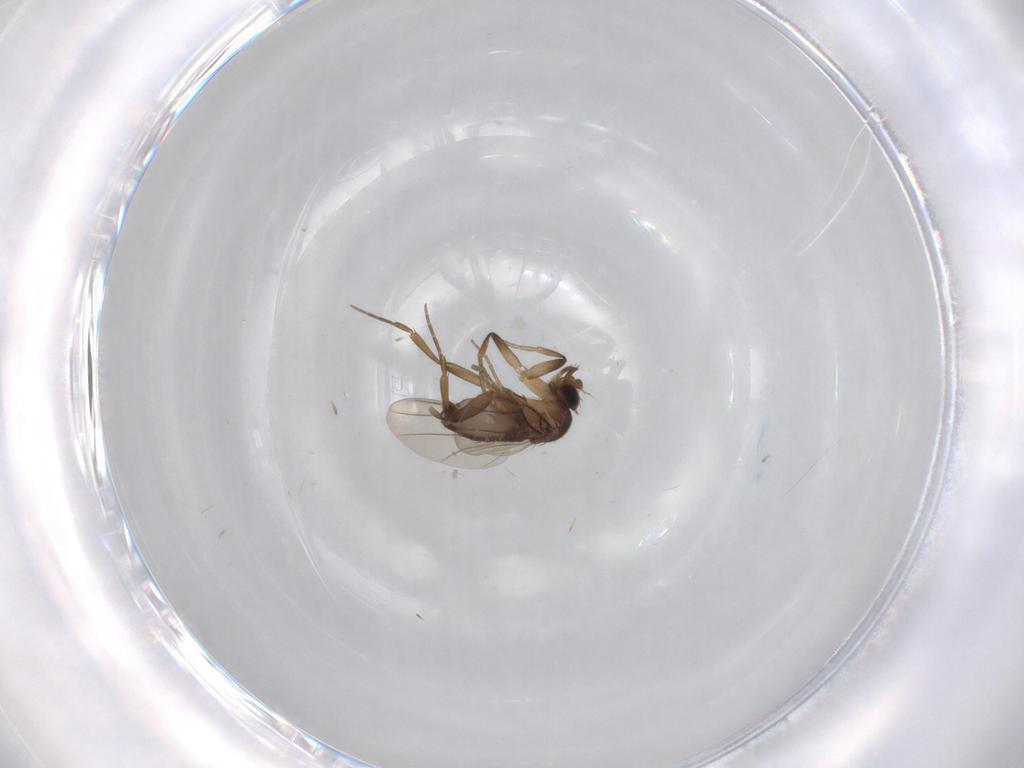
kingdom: Animalia
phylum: Arthropoda
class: Insecta
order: Diptera
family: Phoridae
